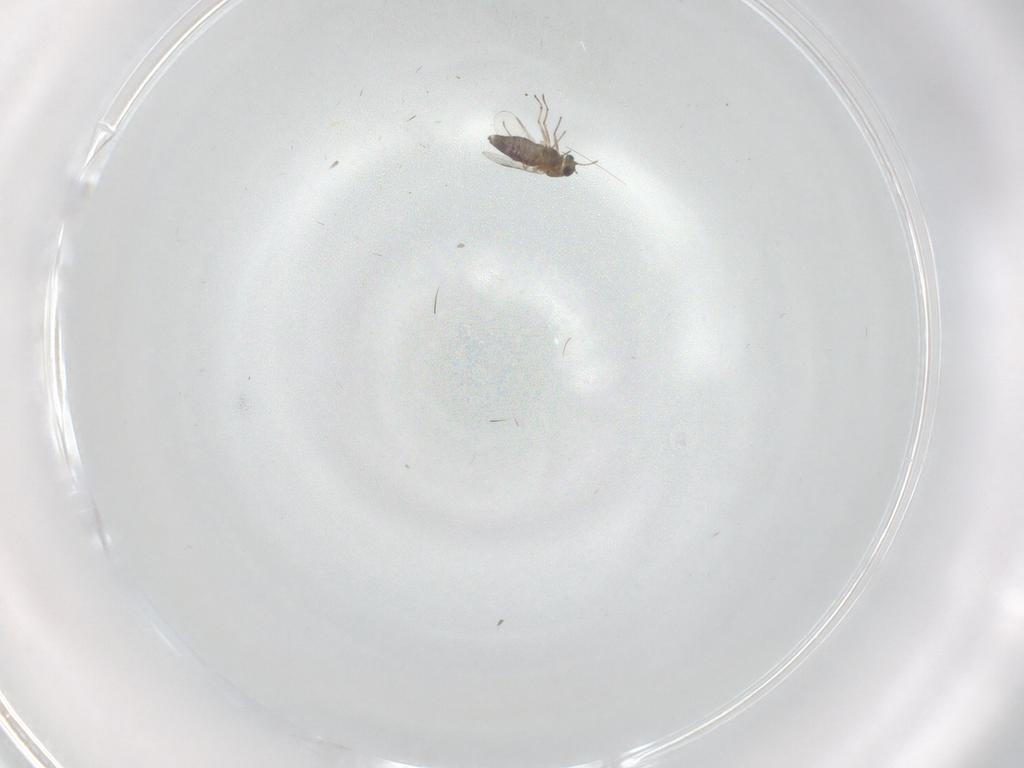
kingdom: Animalia
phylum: Arthropoda
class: Insecta
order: Diptera
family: Chironomidae
